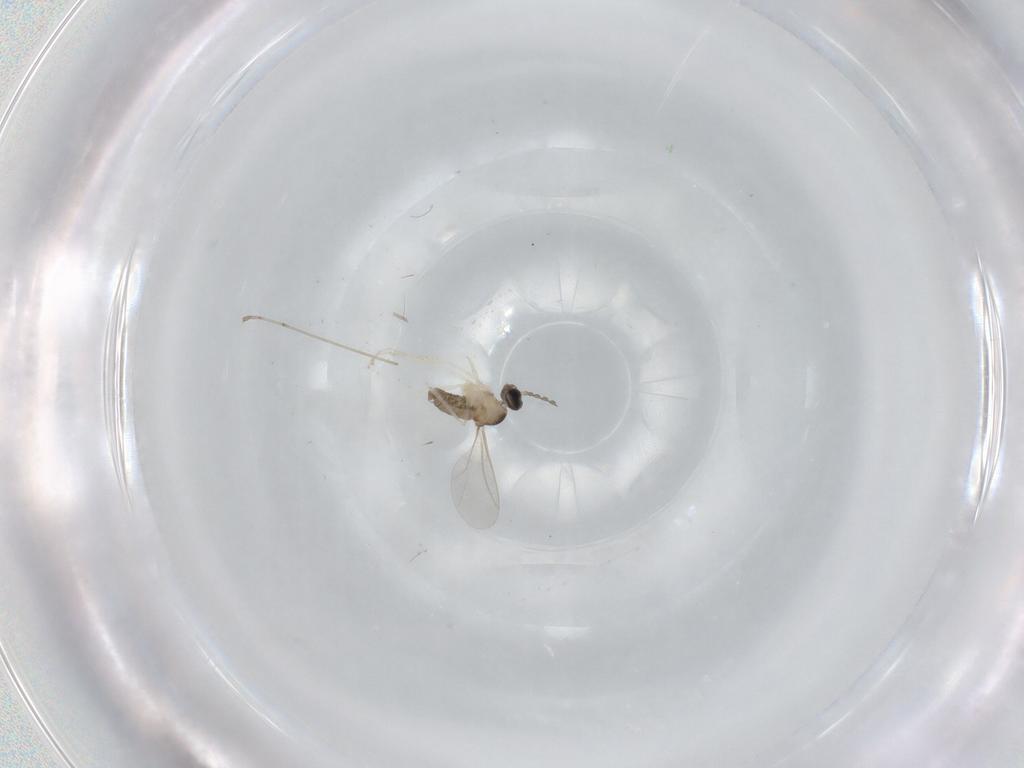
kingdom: Animalia
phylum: Arthropoda
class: Insecta
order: Diptera
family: Cecidomyiidae
